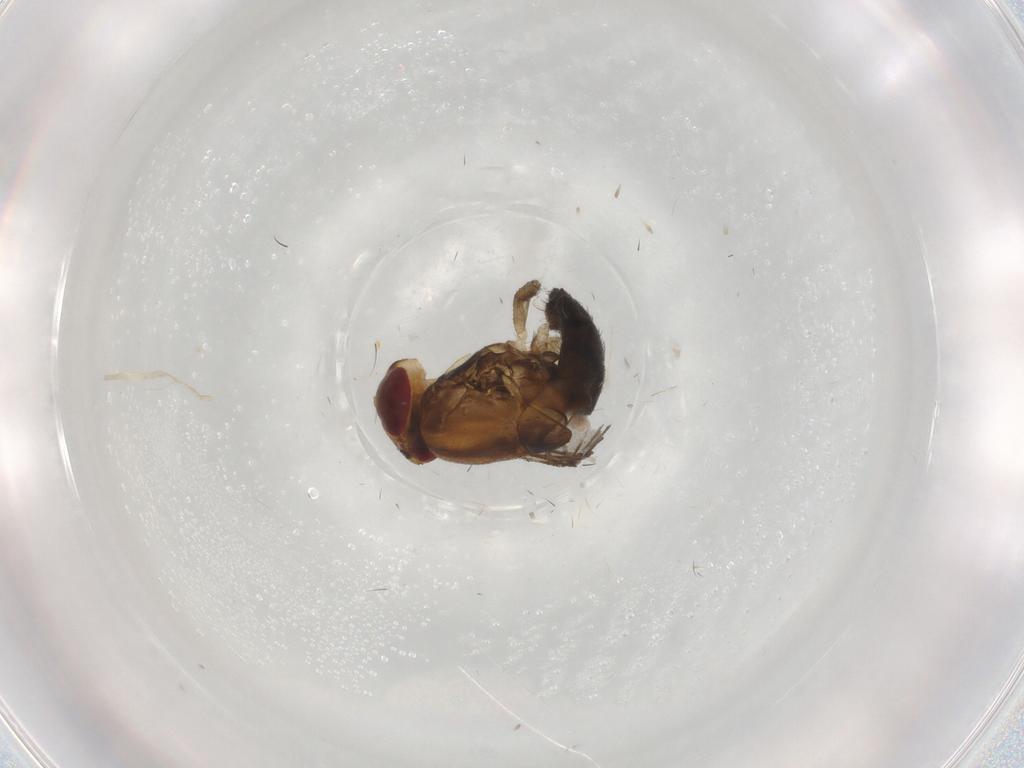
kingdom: Animalia
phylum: Arthropoda
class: Insecta
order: Diptera
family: Drosophilidae
